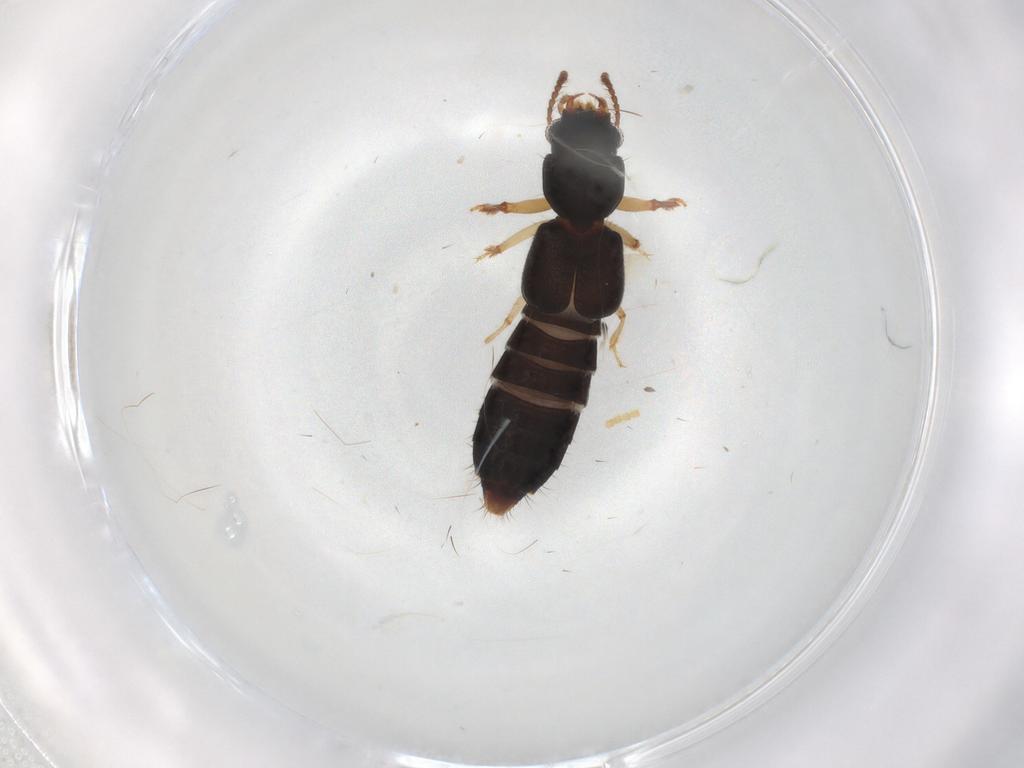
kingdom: Animalia
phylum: Arthropoda
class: Insecta
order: Coleoptera
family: Staphylinidae
